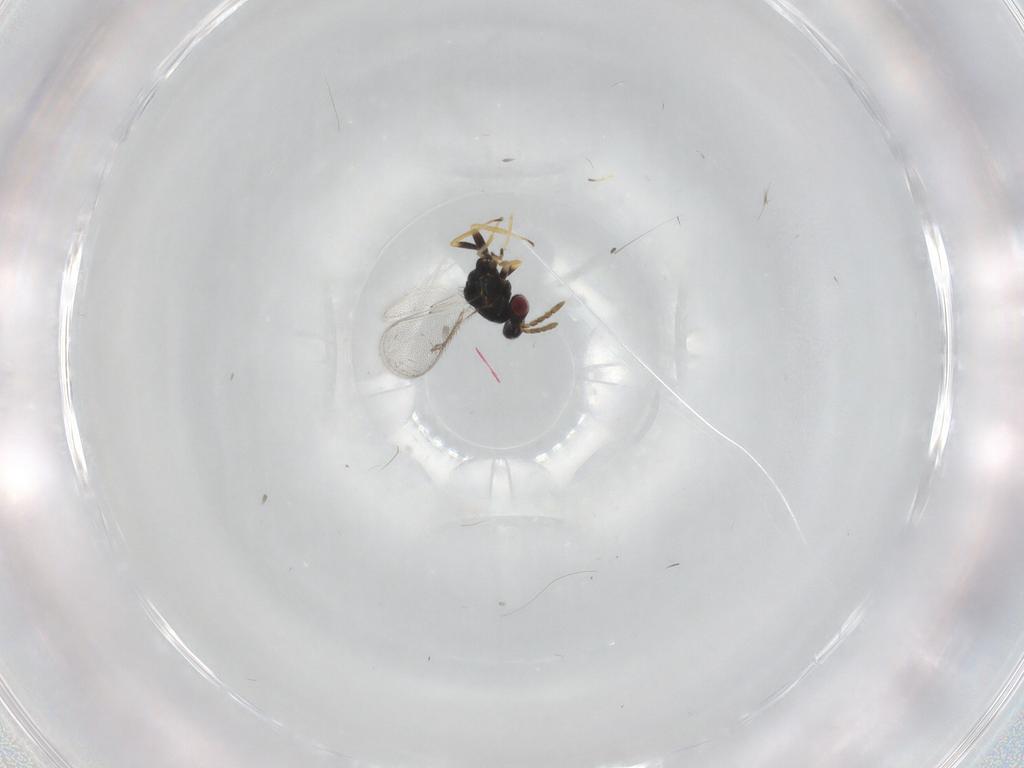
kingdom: Animalia
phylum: Arthropoda
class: Insecta
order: Hymenoptera
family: Eulophidae
